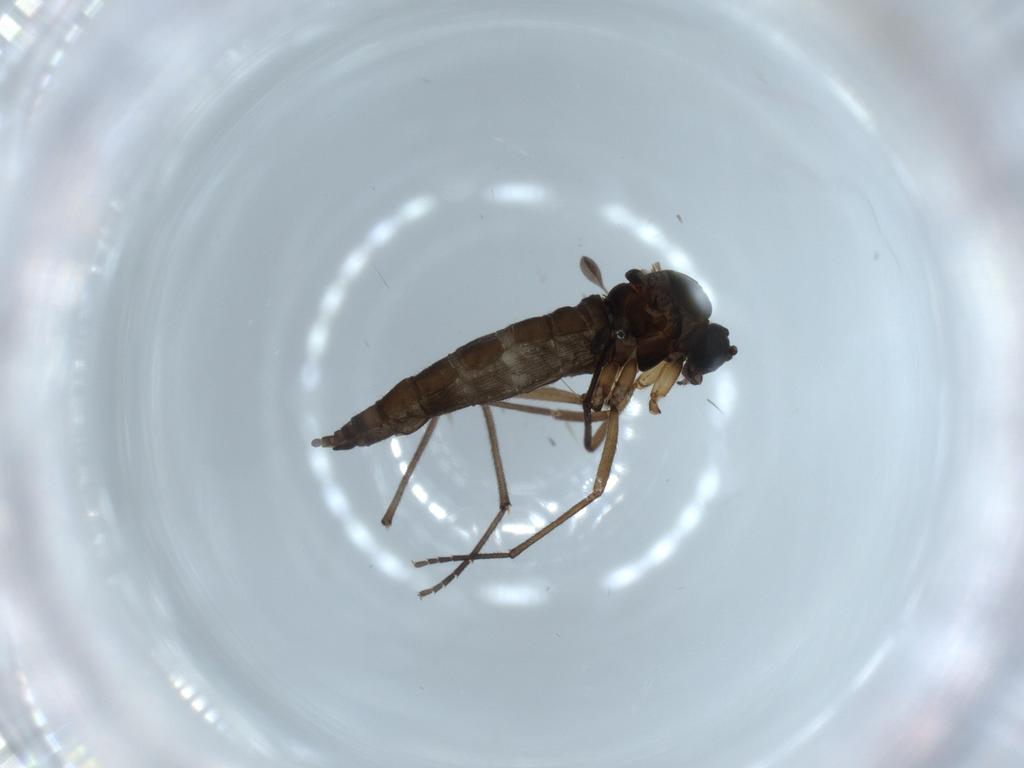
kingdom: Animalia
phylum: Arthropoda
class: Insecta
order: Diptera
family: Sciaridae
